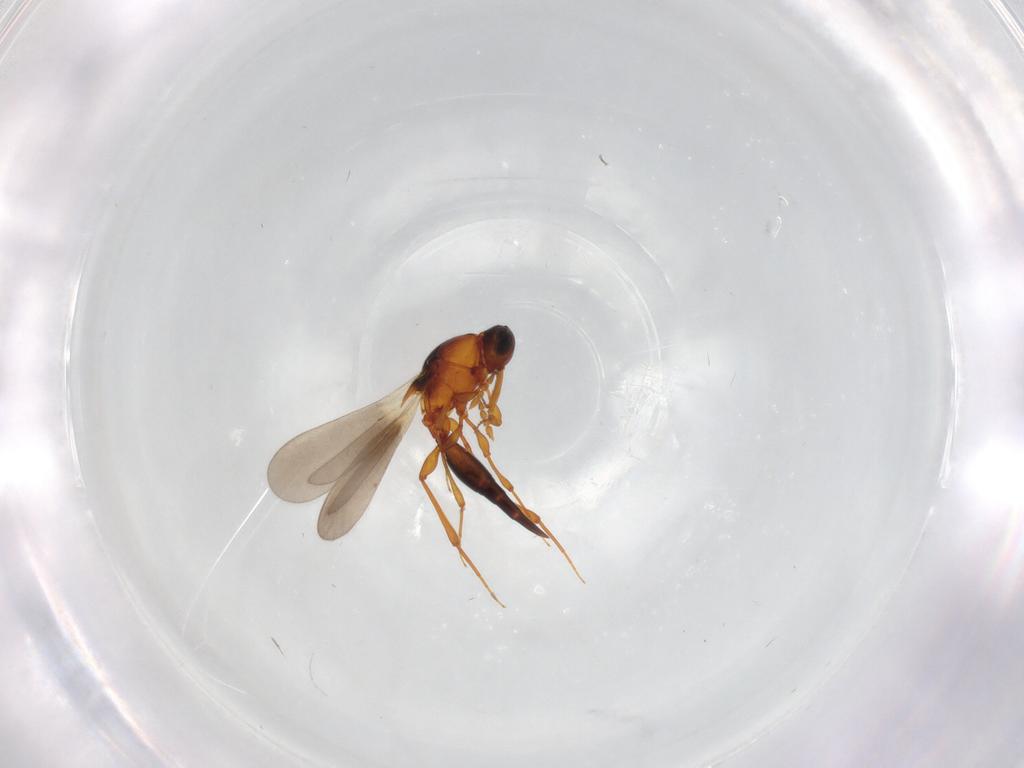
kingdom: Animalia
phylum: Arthropoda
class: Insecta
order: Hymenoptera
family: Platygastridae
